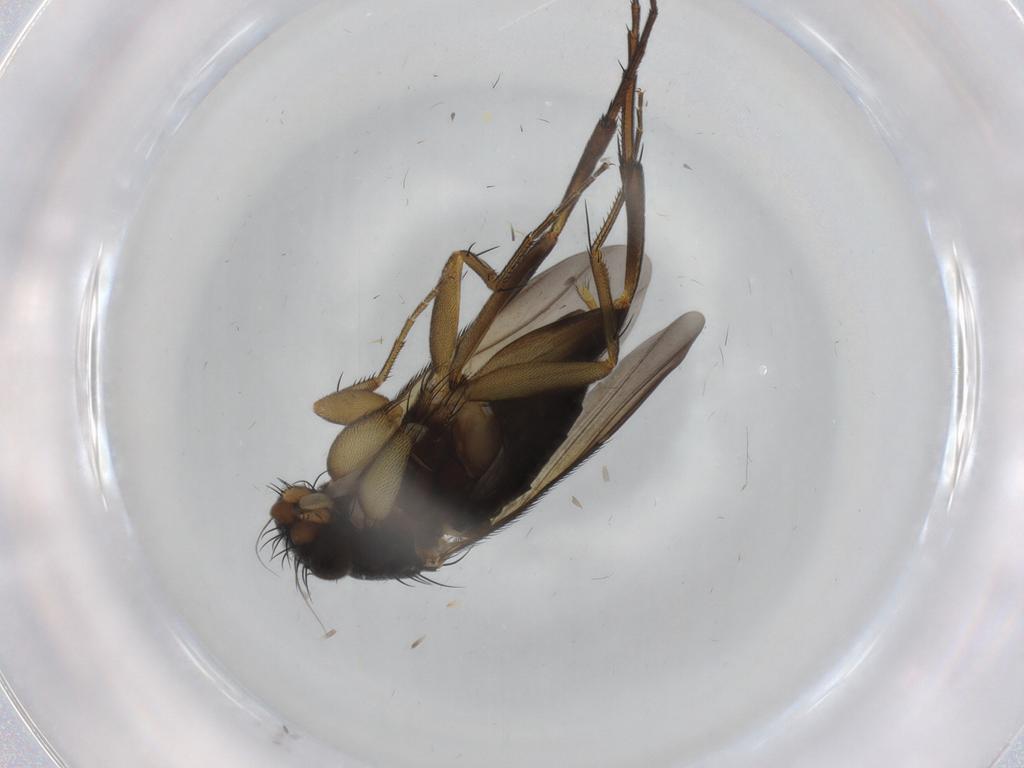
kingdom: Animalia
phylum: Arthropoda
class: Insecta
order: Diptera
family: Phoridae
